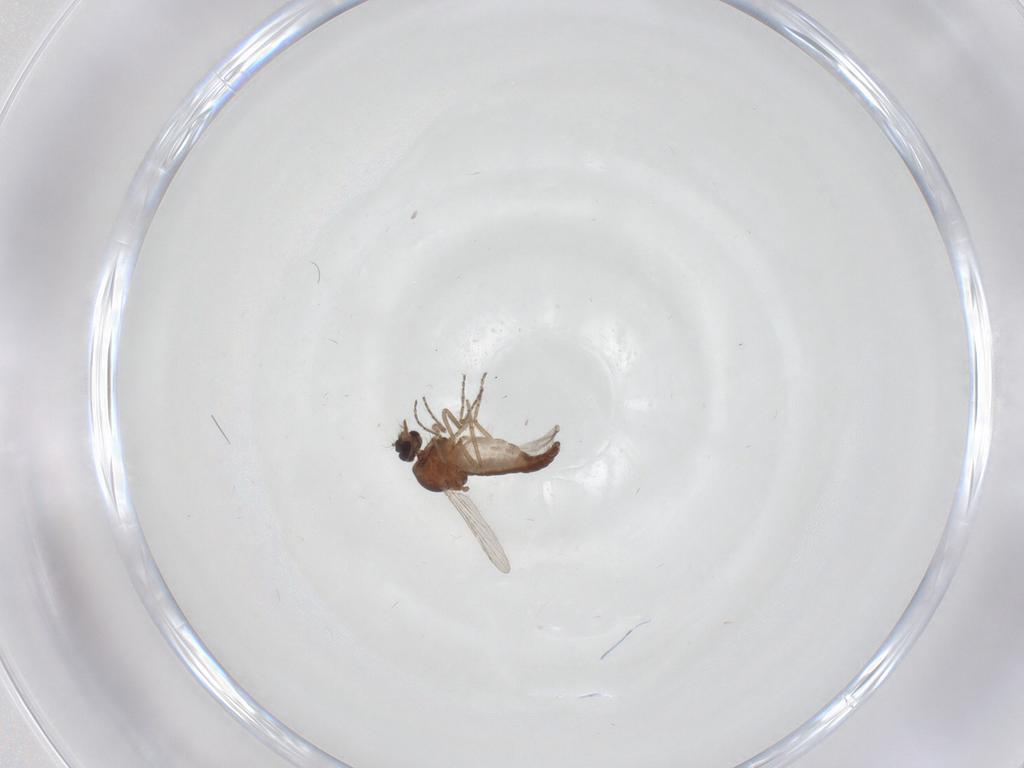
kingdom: Animalia
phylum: Arthropoda
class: Insecta
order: Diptera
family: Ceratopogonidae
